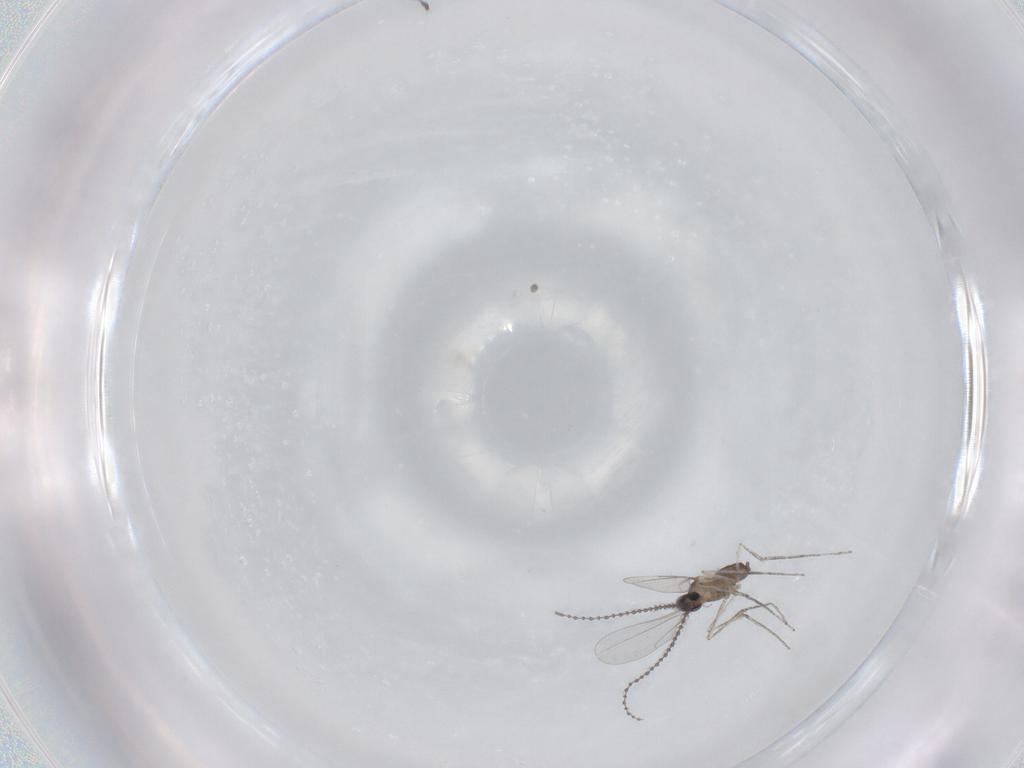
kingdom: Animalia
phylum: Arthropoda
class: Insecta
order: Diptera
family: Cecidomyiidae
